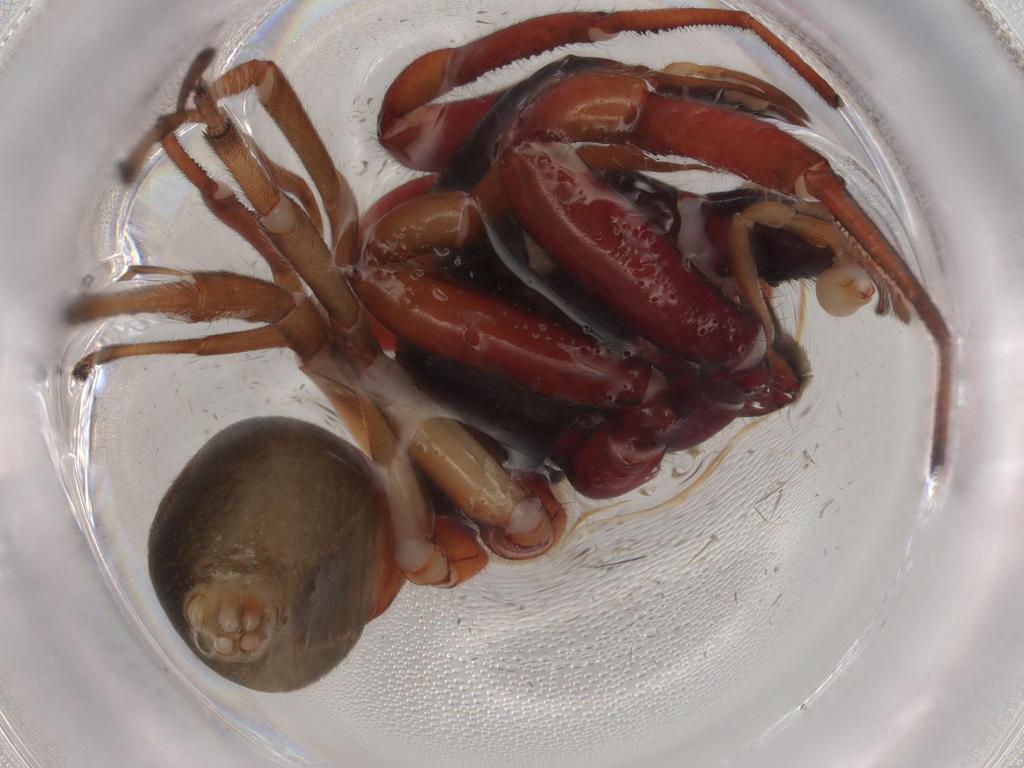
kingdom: Animalia
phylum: Arthropoda
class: Arachnida
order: Araneae
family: Trachelidae
